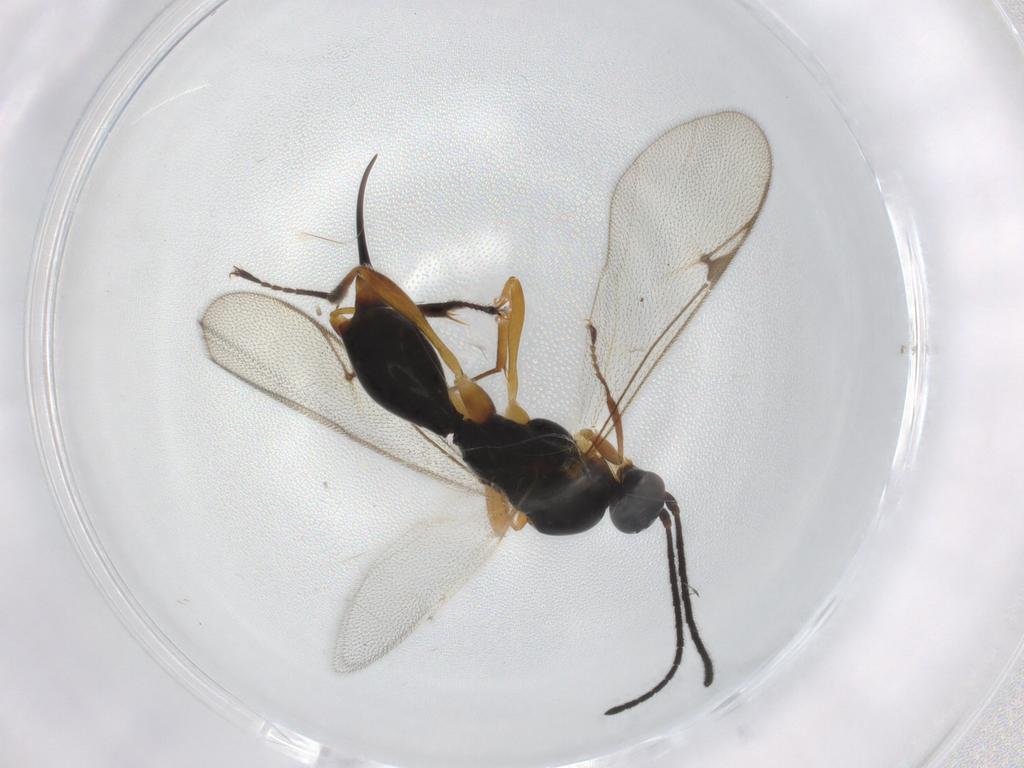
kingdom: Animalia
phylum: Arthropoda
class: Insecta
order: Hymenoptera
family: Proctotrupidae
